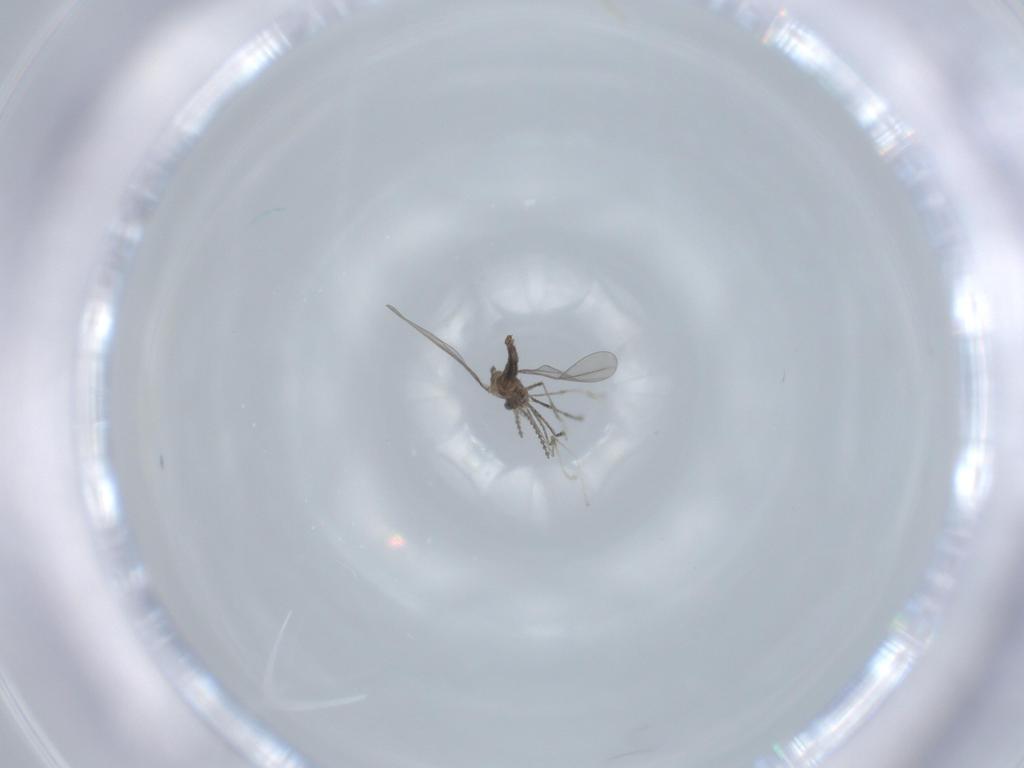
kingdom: Animalia
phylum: Arthropoda
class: Insecta
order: Diptera
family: Cecidomyiidae
